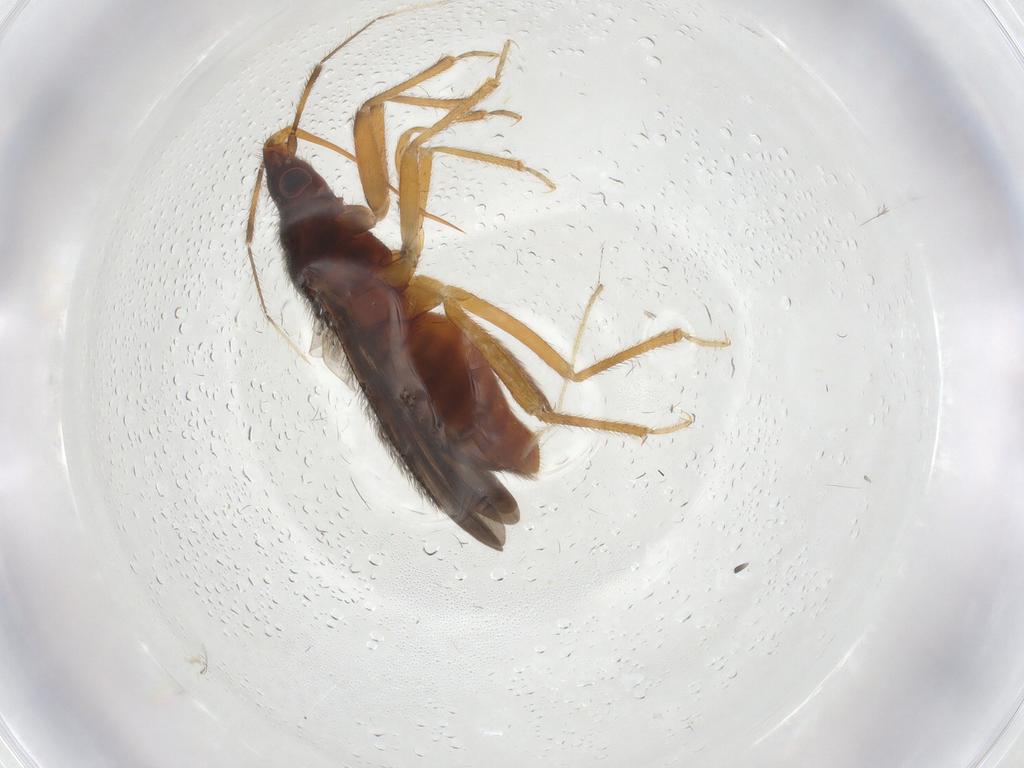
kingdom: Animalia
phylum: Arthropoda
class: Insecta
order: Hemiptera
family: Anthocoridae
